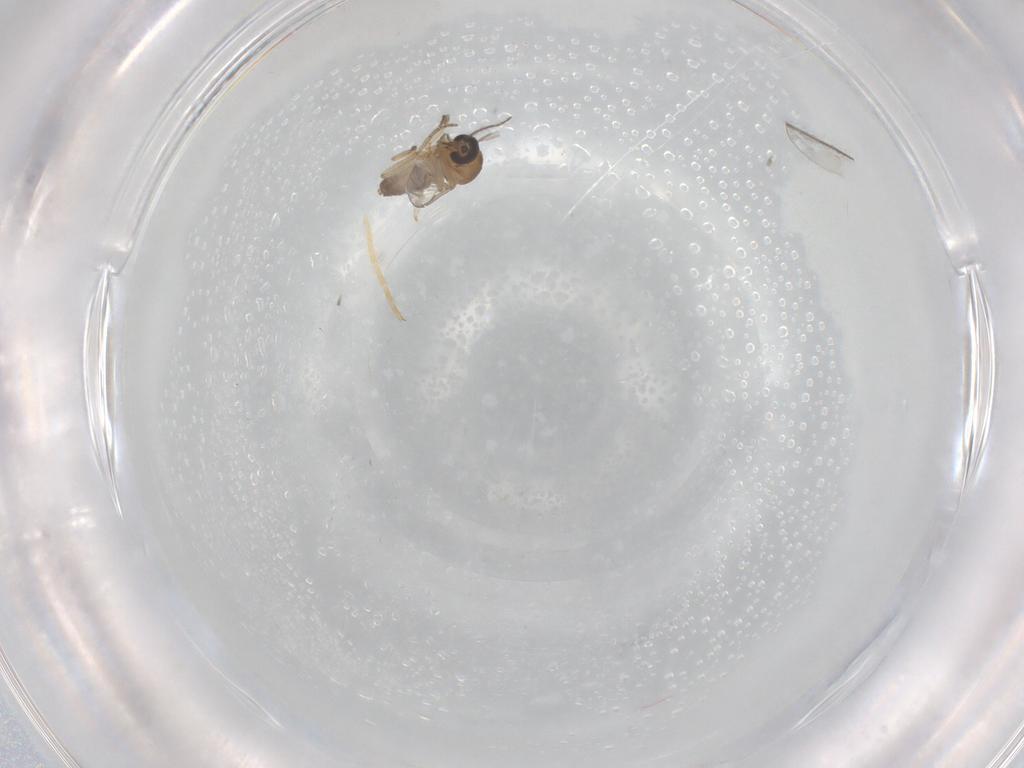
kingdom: Animalia
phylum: Arthropoda
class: Insecta
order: Diptera
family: Chironomidae
